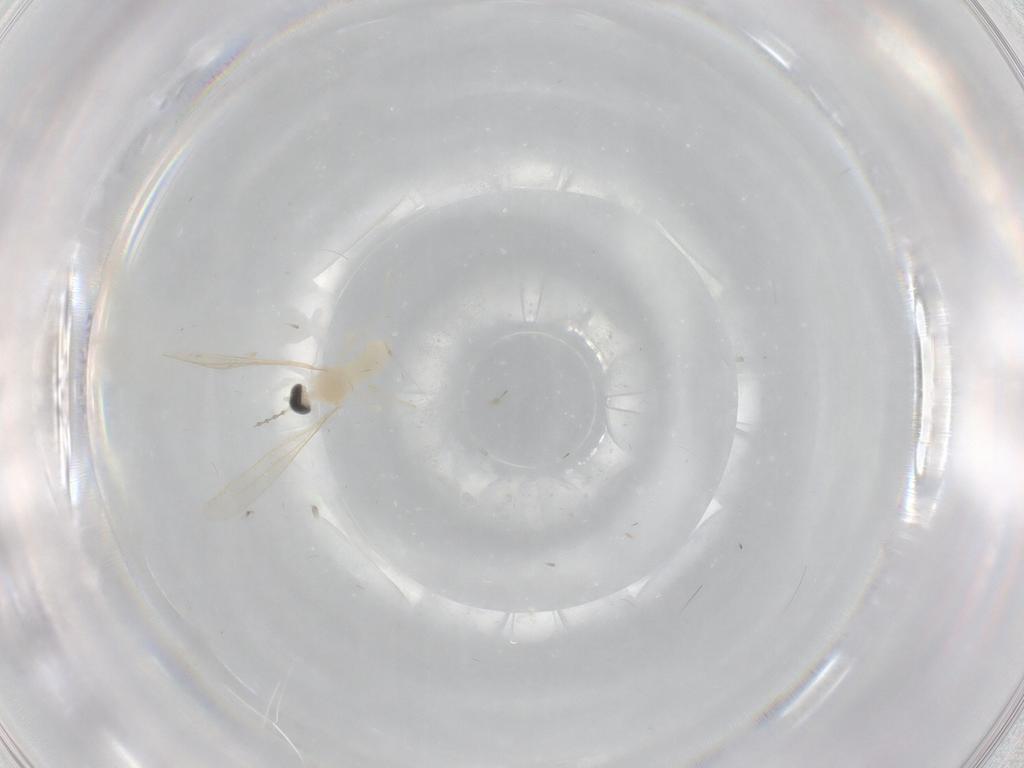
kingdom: Animalia
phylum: Arthropoda
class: Insecta
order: Diptera
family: Cecidomyiidae
